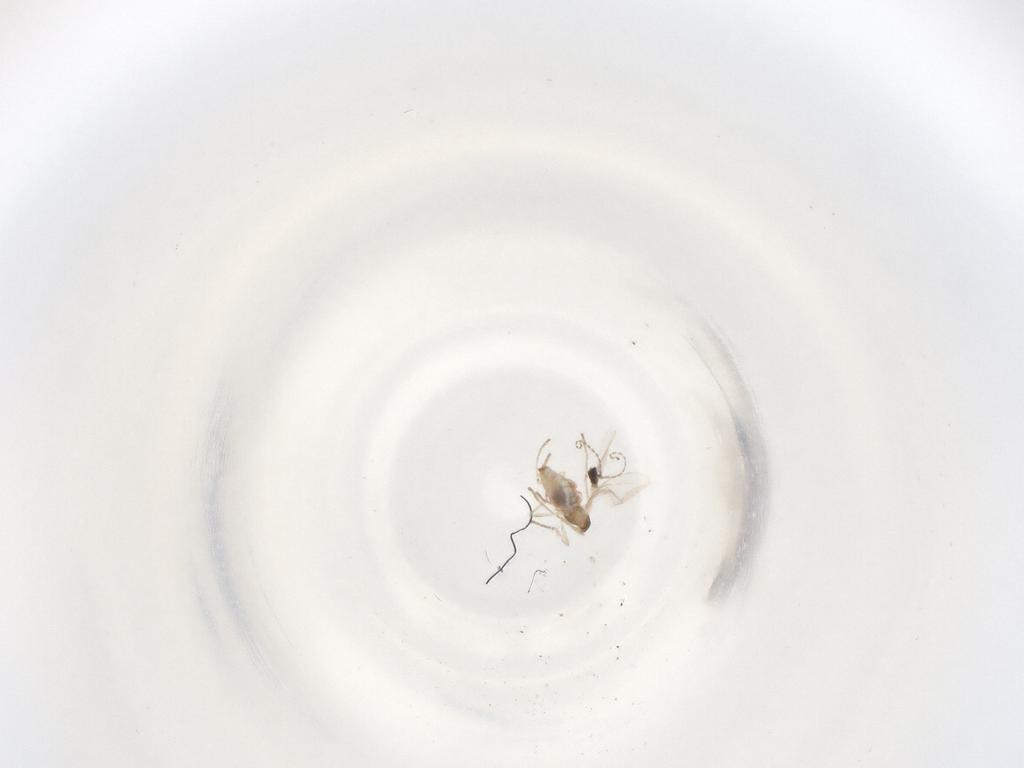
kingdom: Animalia
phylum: Arthropoda
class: Insecta
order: Diptera
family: Cecidomyiidae
